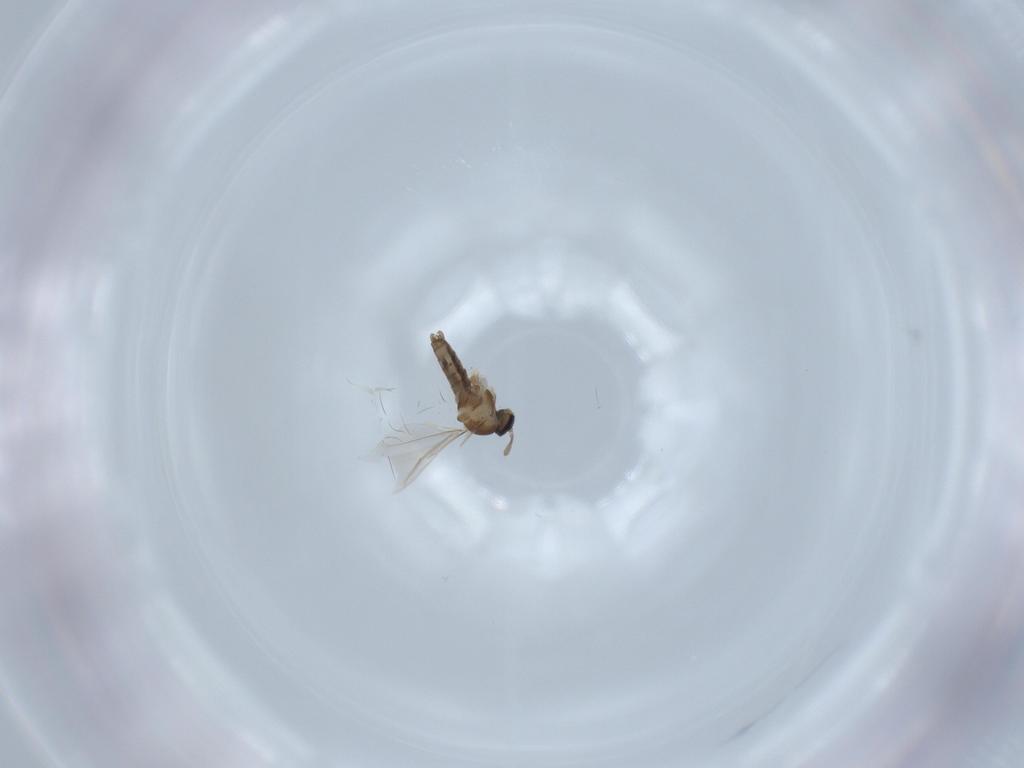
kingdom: Animalia
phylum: Arthropoda
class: Insecta
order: Diptera
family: Cecidomyiidae
